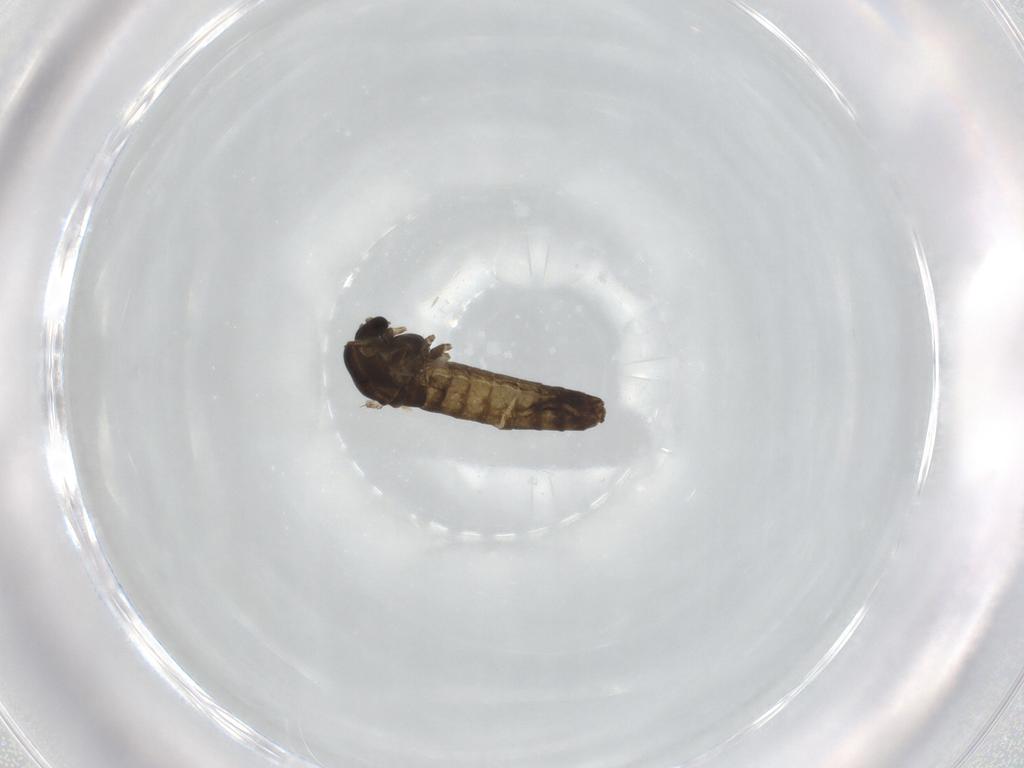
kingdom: Animalia
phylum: Arthropoda
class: Insecta
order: Diptera
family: Chironomidae
